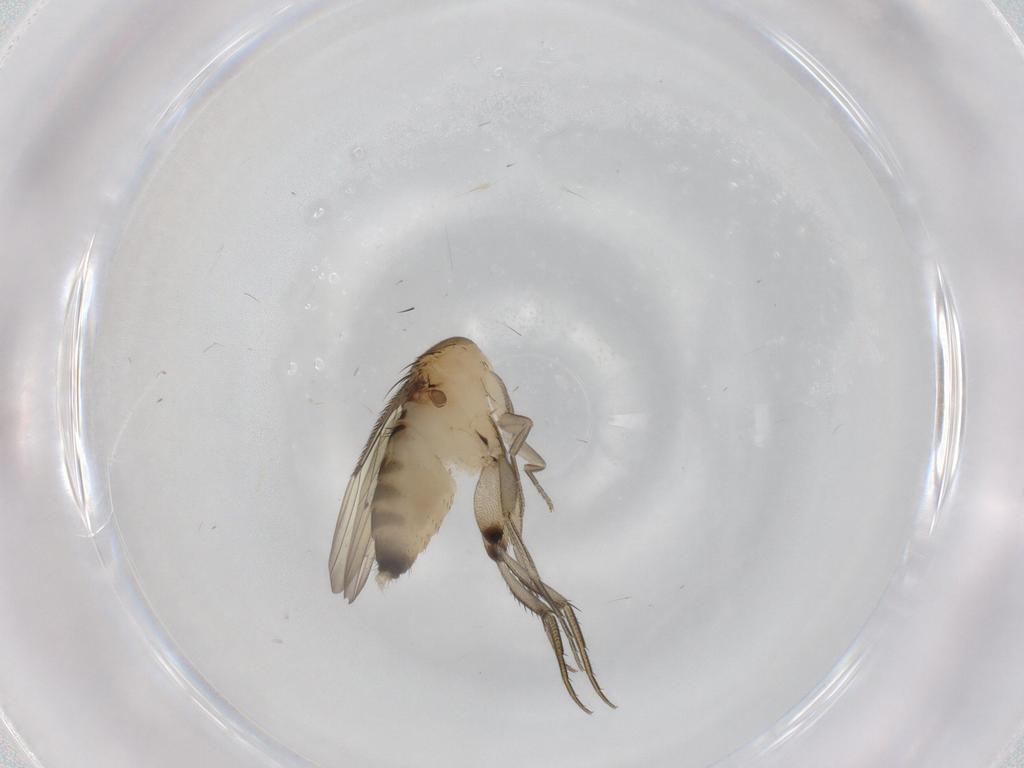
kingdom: Animalia
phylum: Arthropoda
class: Insecta
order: Diptera
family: Phoridae
